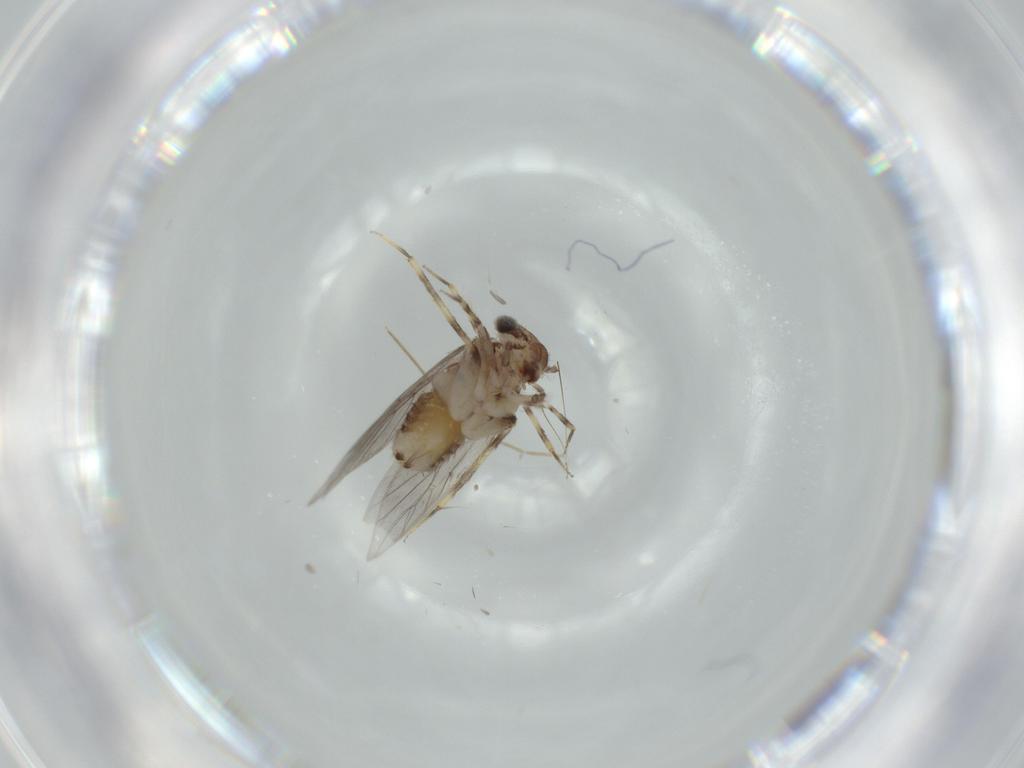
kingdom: Animalia
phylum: Arthropoda
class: Insecta
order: Psocodea
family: Lepidopsocidae
